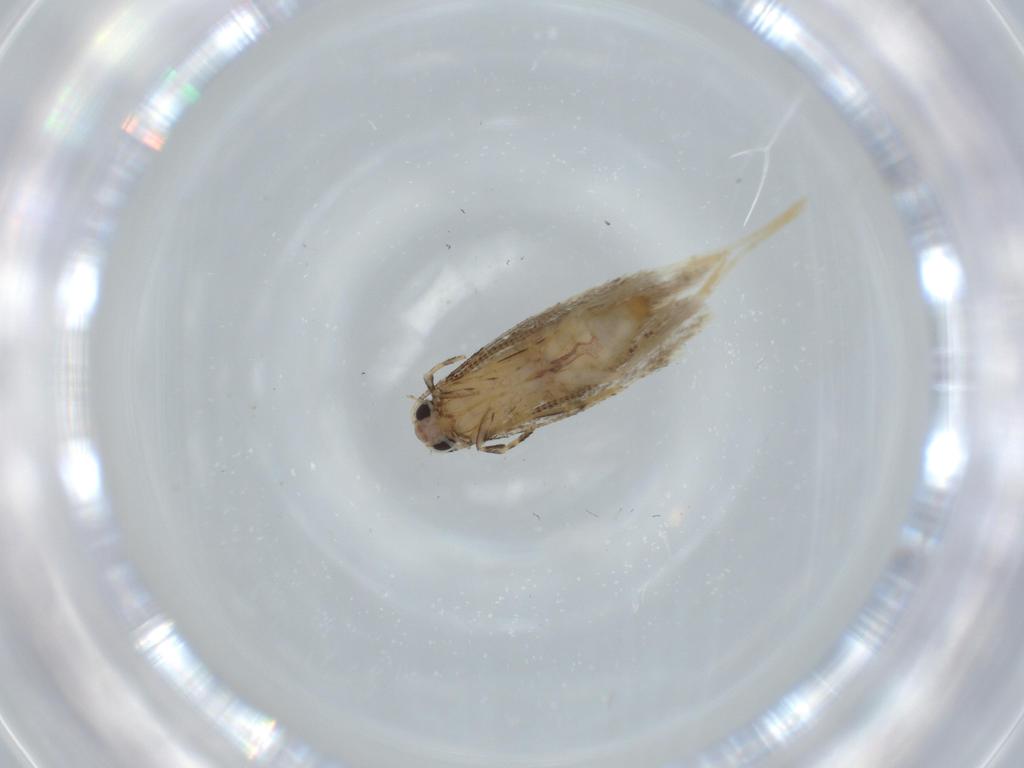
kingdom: Animalia
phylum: Arthropoda
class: Insecta
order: Lepidoptera
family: Tineidae
